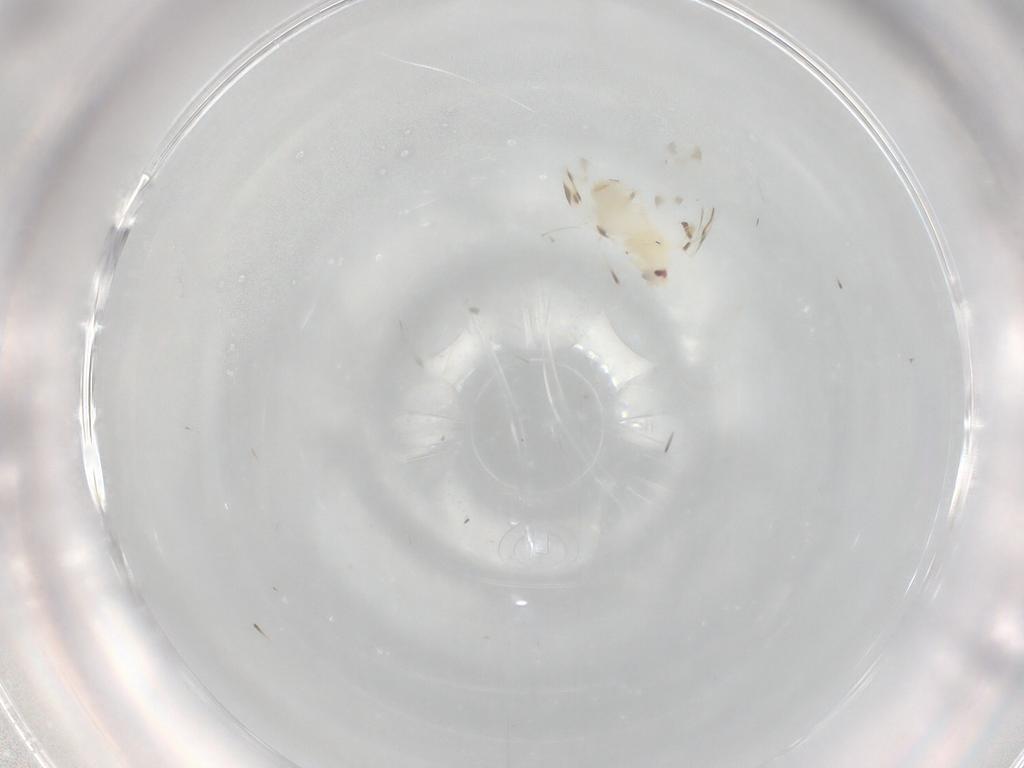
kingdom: Animalia
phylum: Arthropoda
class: Insecta
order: Hemiptera
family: Aleyrodidae
